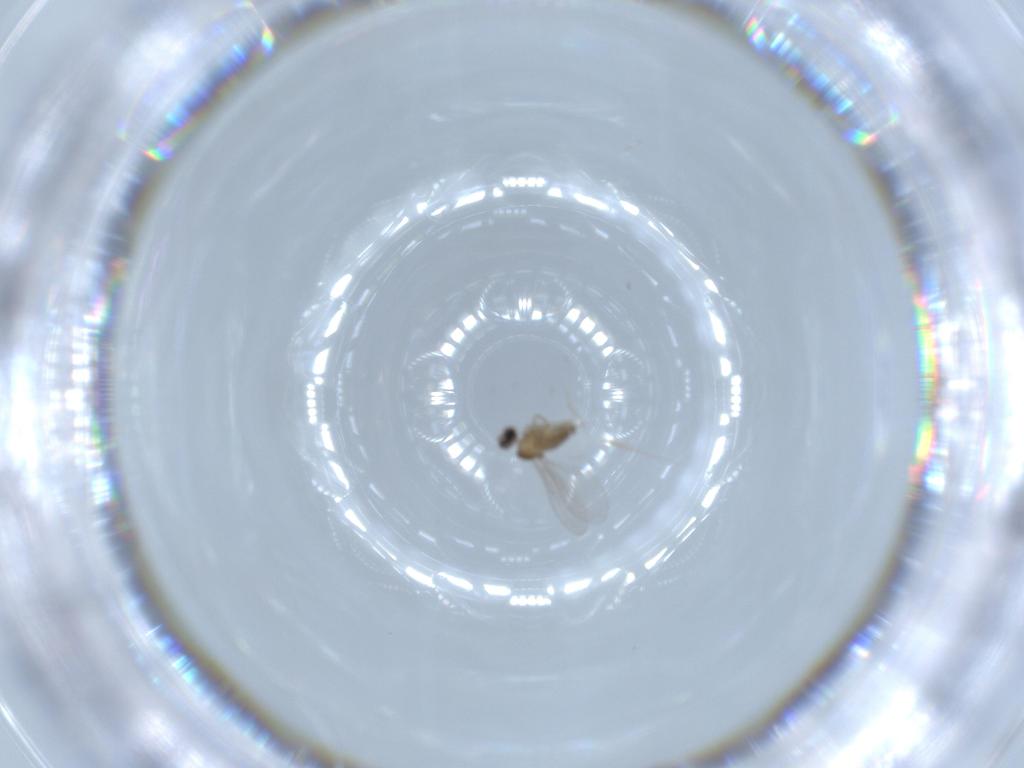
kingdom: Animalia
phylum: Arthropoda
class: Insecta
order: Diptera
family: Cecidomyiidae
